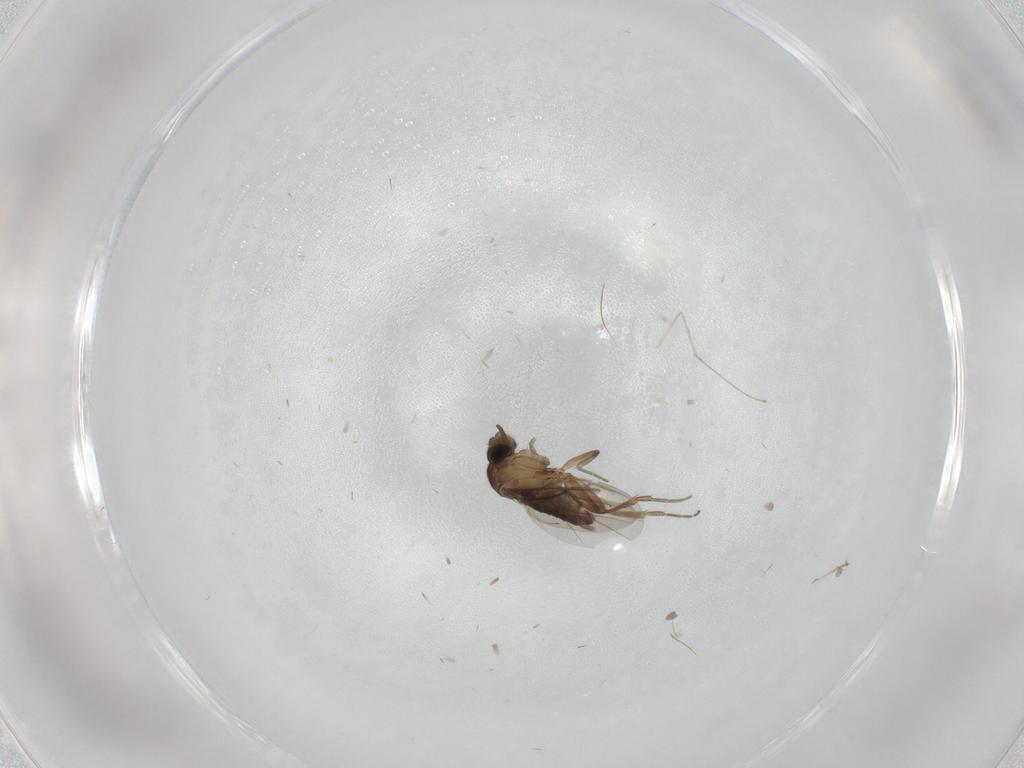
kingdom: Animalia
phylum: Arthropoda
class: Insecta
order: Diptera
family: Phoridae
